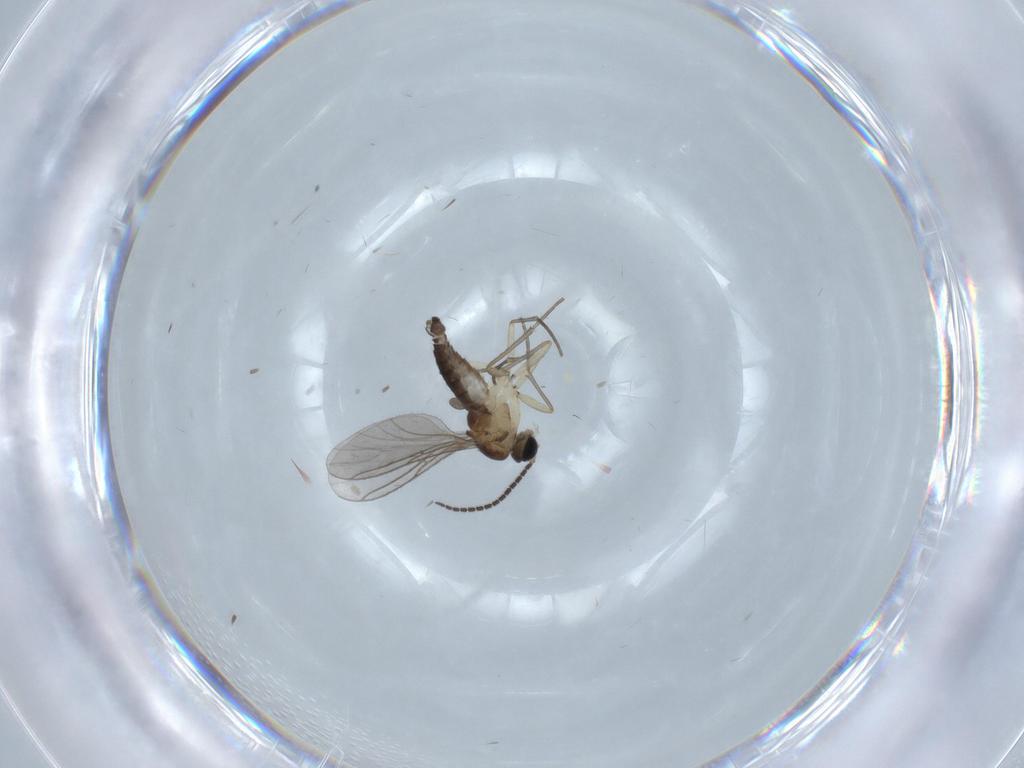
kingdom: Animalia
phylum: Arthropoda
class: Insecta
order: Diptera
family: Sciaridae
